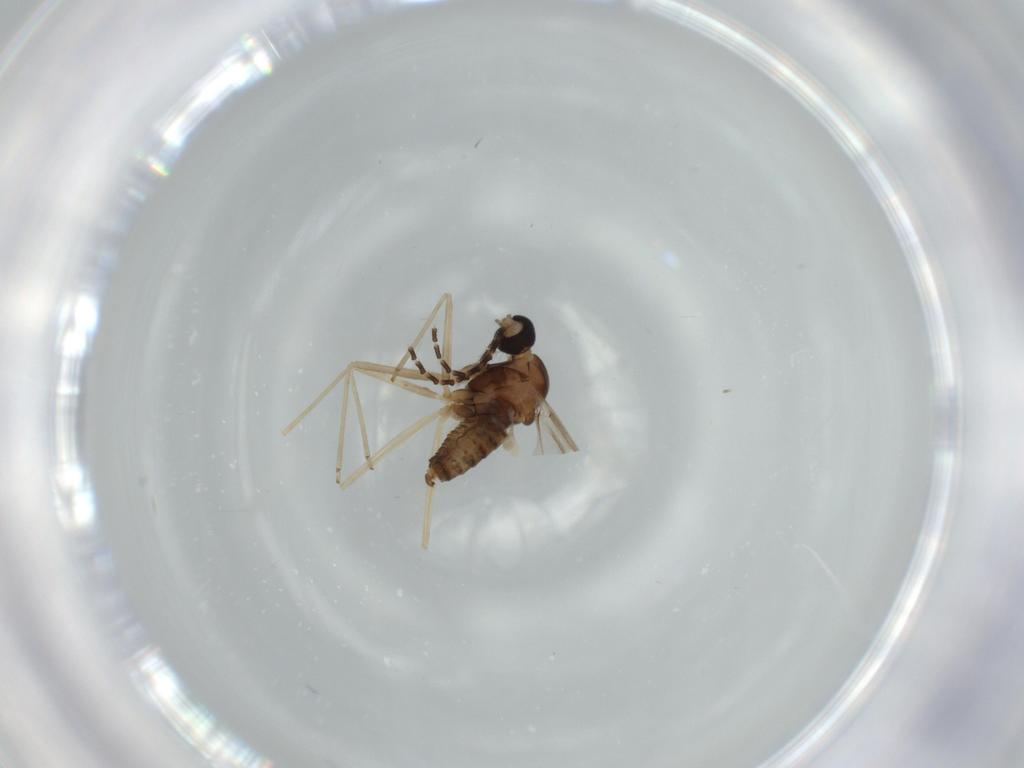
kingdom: Animalia
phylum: Arthropoda
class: Insecta
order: Diptera
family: Cecidomyiidae
